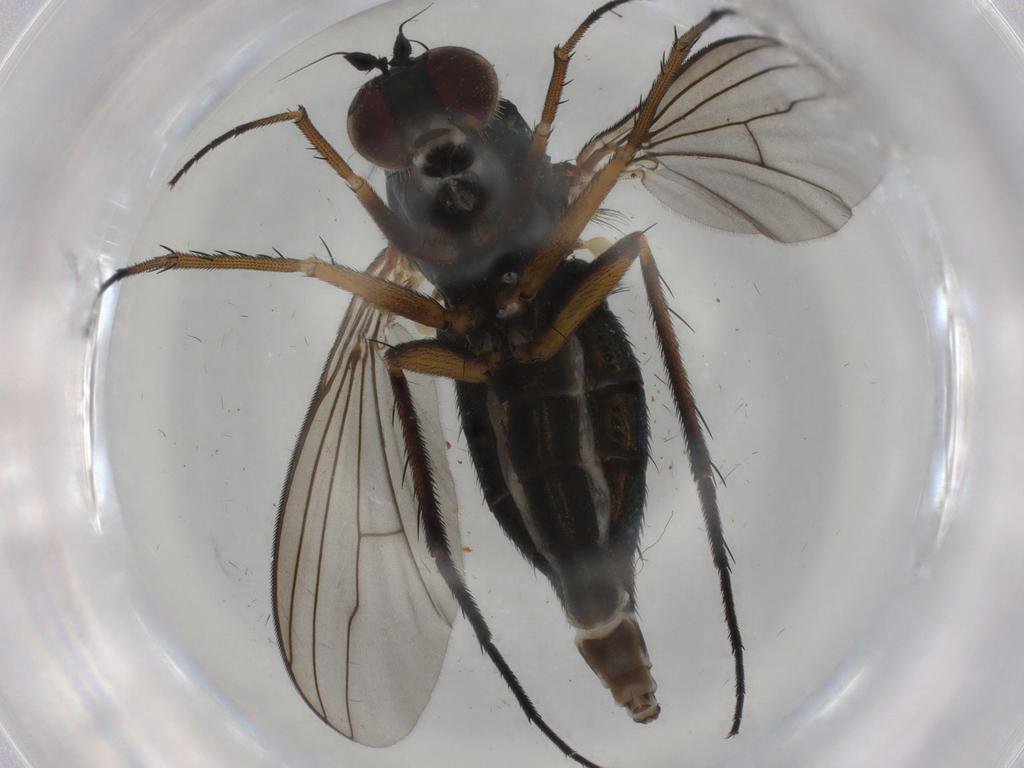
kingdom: Animalia
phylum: Arthropoda
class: Insecta
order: Diptera
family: Dolichopodidae
